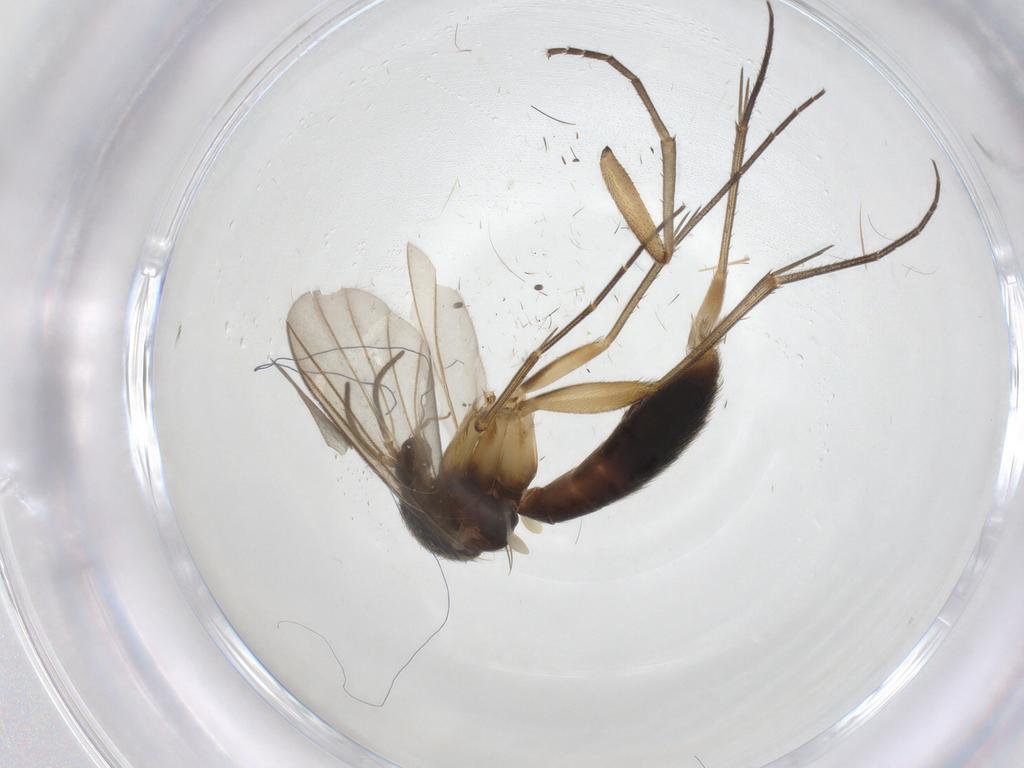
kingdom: Animalia
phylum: Arthropoda
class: Insecta
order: Diptera
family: Mycetophilidae
